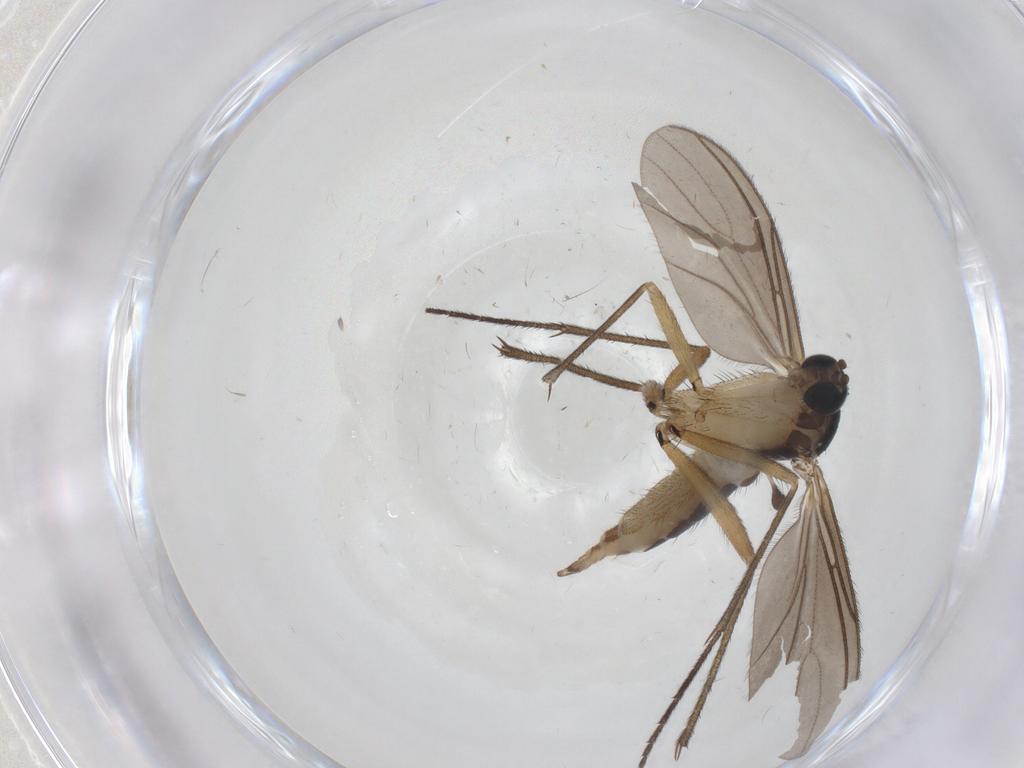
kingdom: Animalia
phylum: Arthropoda
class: Insecta
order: Diptera
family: Sciaridae
